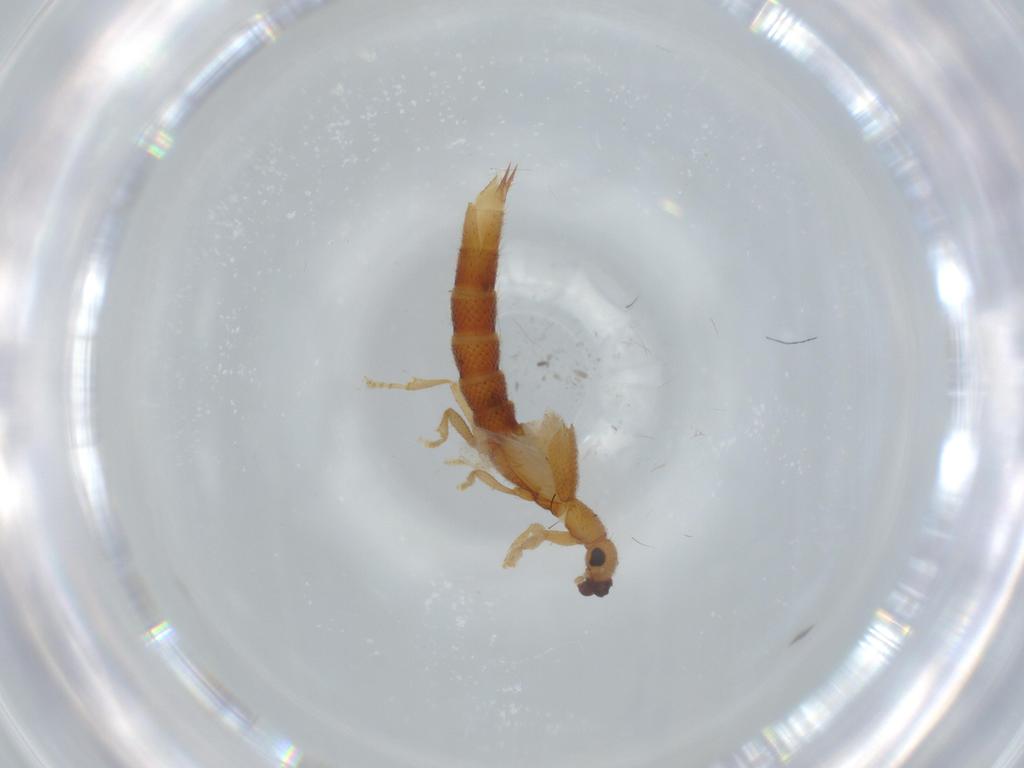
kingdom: Animalia
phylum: Arthropoda
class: Insecta
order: Coleoptera
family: Staphylinidae
